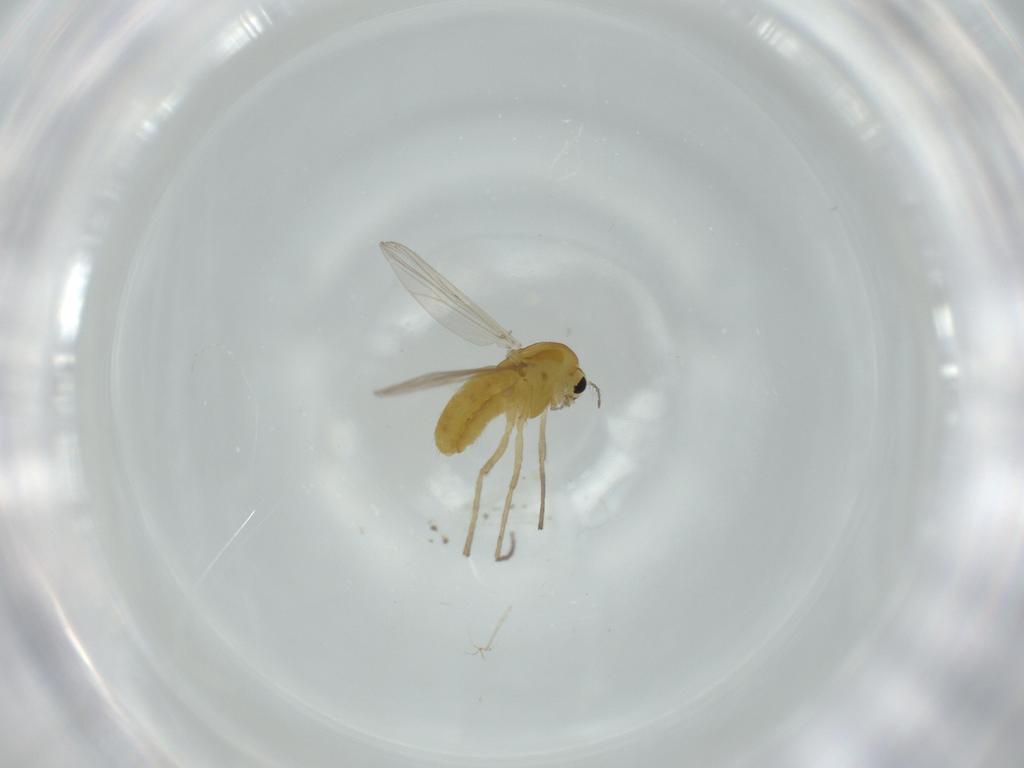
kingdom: Animalia
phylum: Arthropoda
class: Insecta
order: Diptera
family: Chironomidae
